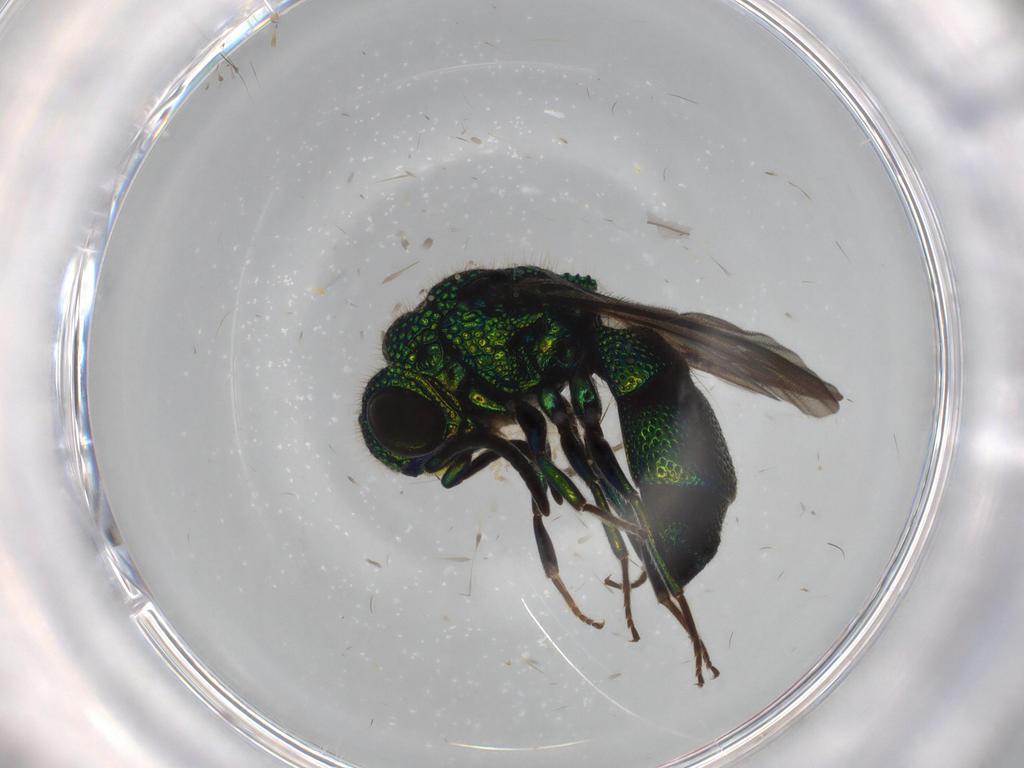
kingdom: Animalia
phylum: Arthropoda
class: Insecta
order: Hymenoptera
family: Chrysididae
